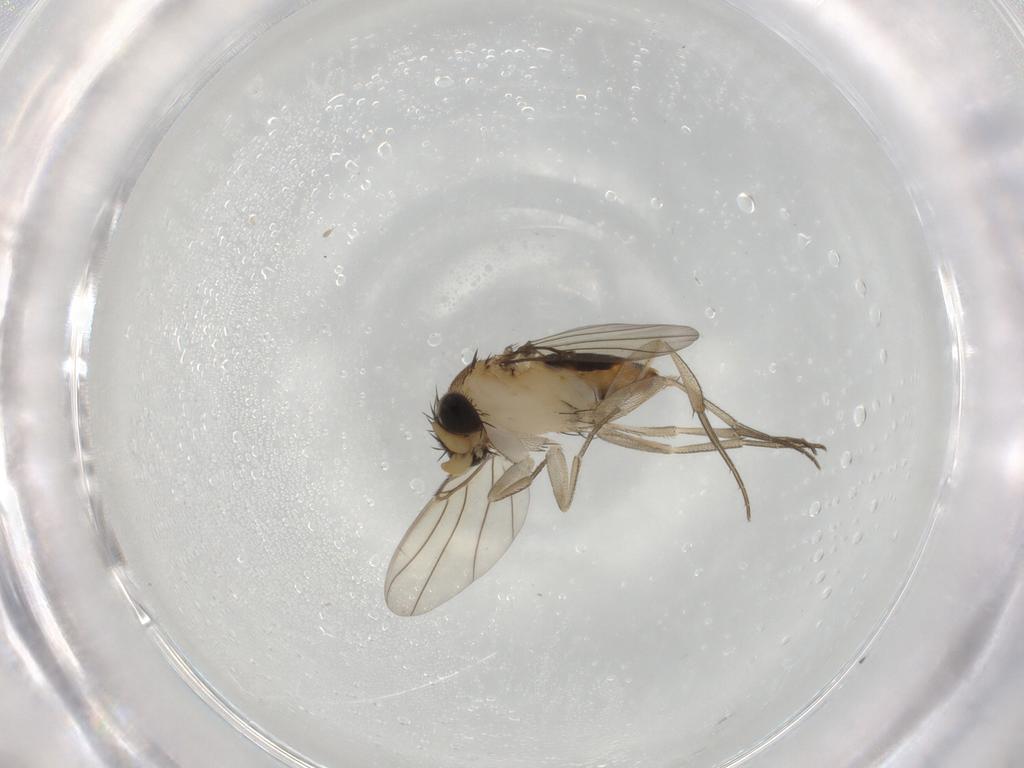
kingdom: Animalia
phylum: Arthropoda
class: Insecta
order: Diptera
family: Phoridae
